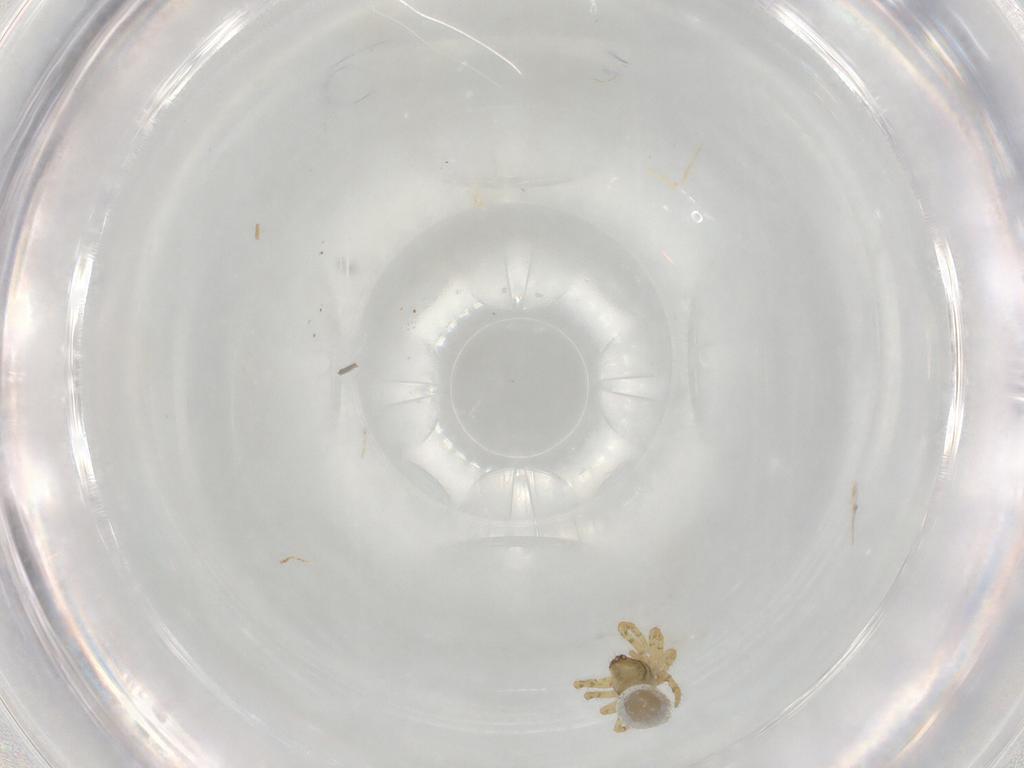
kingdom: Animalia
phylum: Arthropoda
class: Arachnida
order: Araneae
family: Theridiidae
